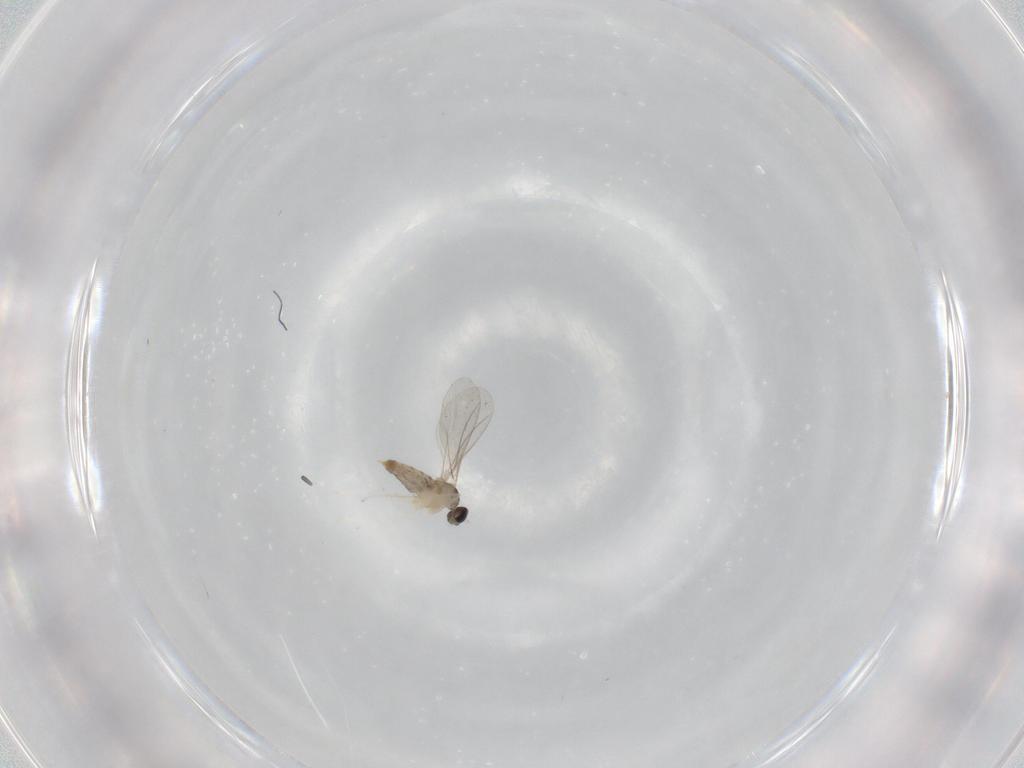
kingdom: Animalia
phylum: Arthropoda
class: Insecta
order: Diptera
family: Cecidomyiidae
